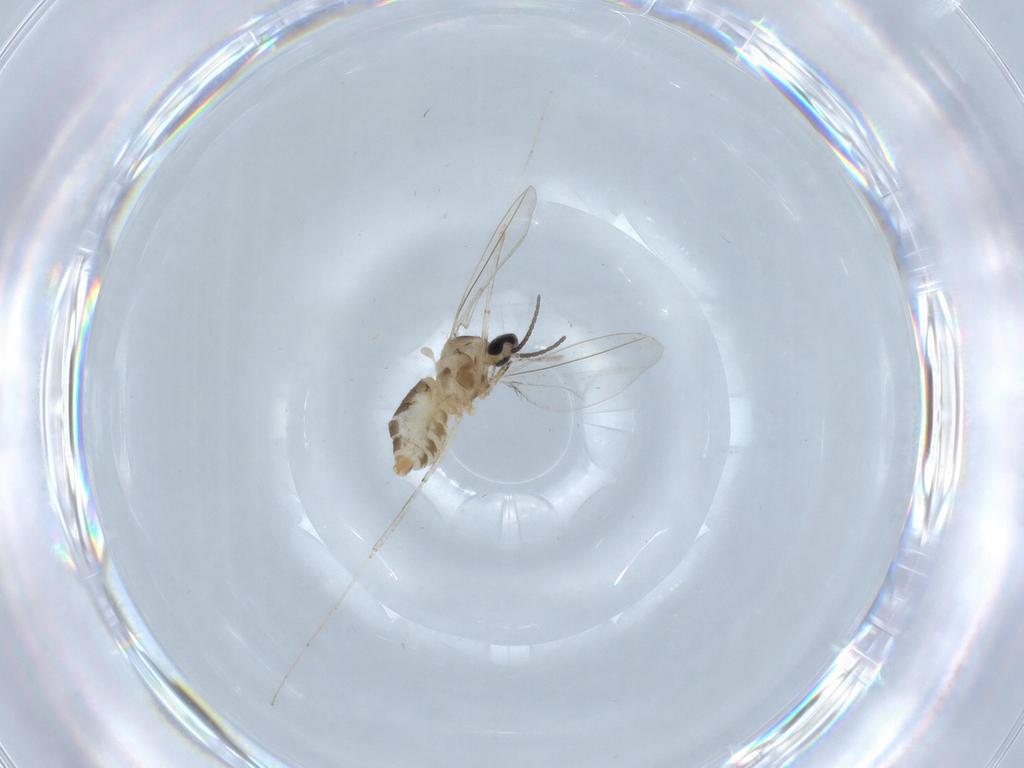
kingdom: Animalia
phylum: Arthropoda
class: Insecta
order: Diptera
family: Cecidomyiidae
